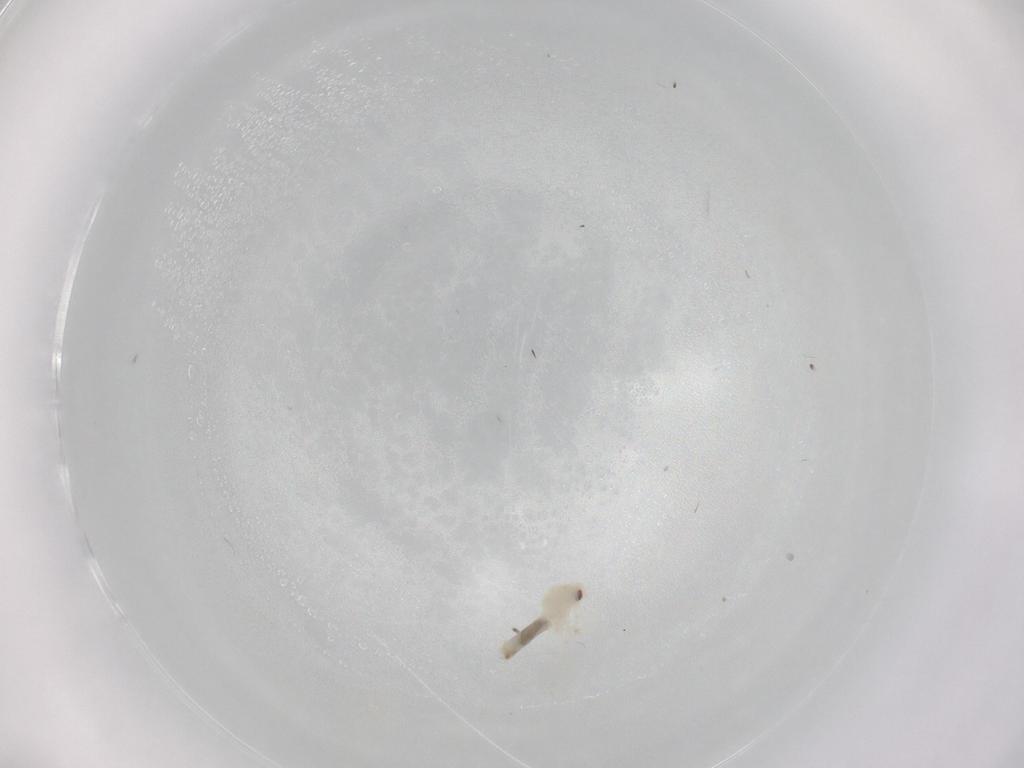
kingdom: Animalia
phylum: Arthropoda
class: Insecta
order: Hemiptera
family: Aleyrodidae
